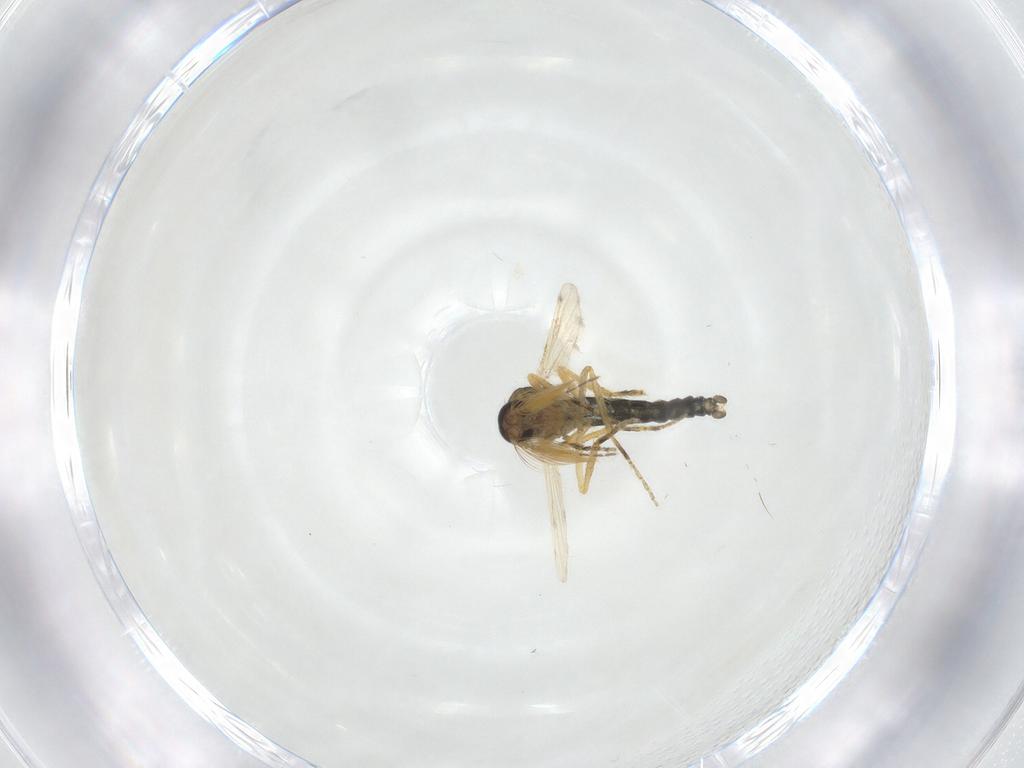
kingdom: Animalia
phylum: Arthropoda
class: Insecta
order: Diptera
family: Ceratopogonidae
